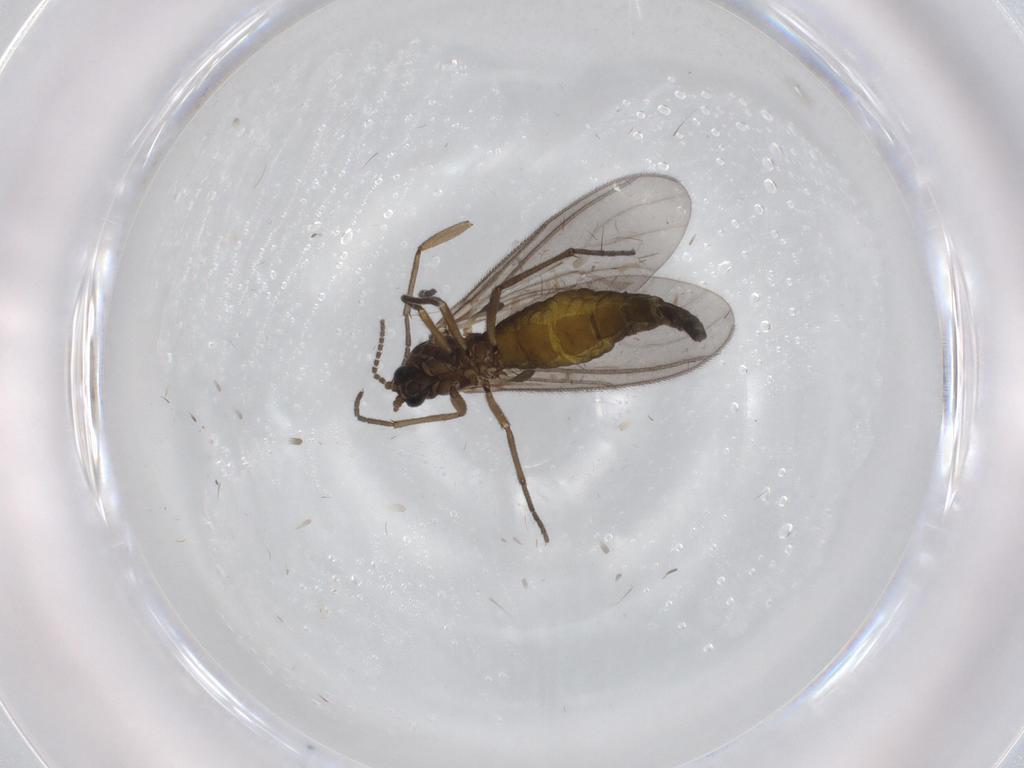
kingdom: Animalia
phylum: Arthropoda
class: Insecta
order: Diptera
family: Sciaridae
